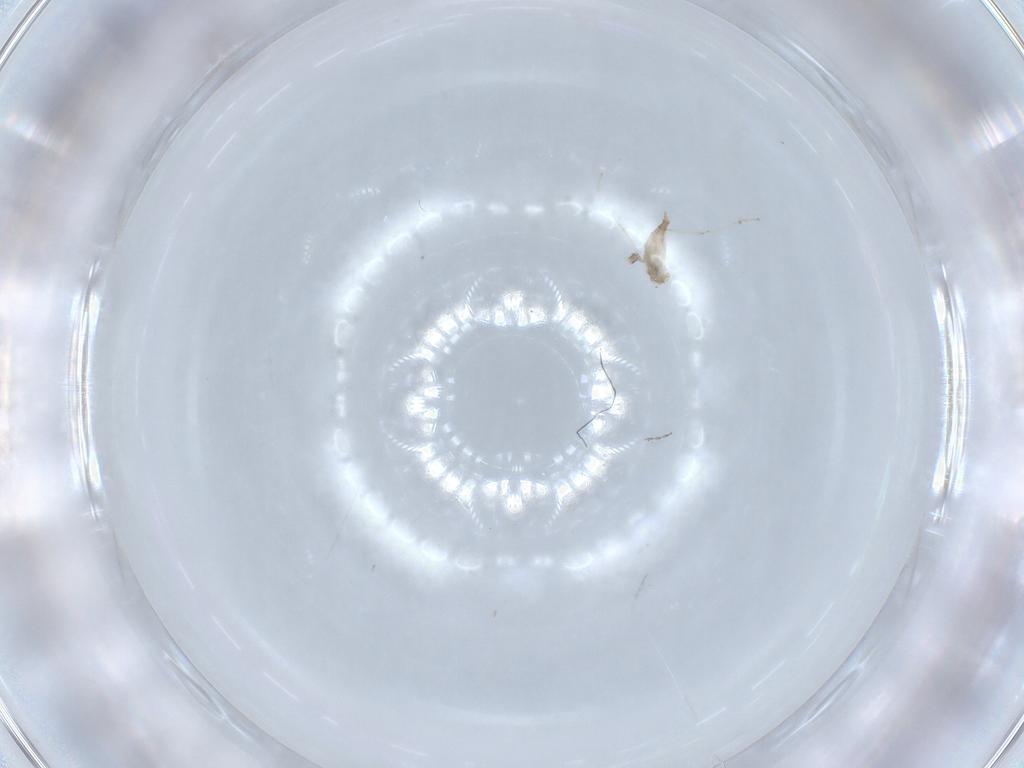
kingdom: Animalia
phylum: Arthropoda
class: Insecta
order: Diptera
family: Cecidomyiidae
